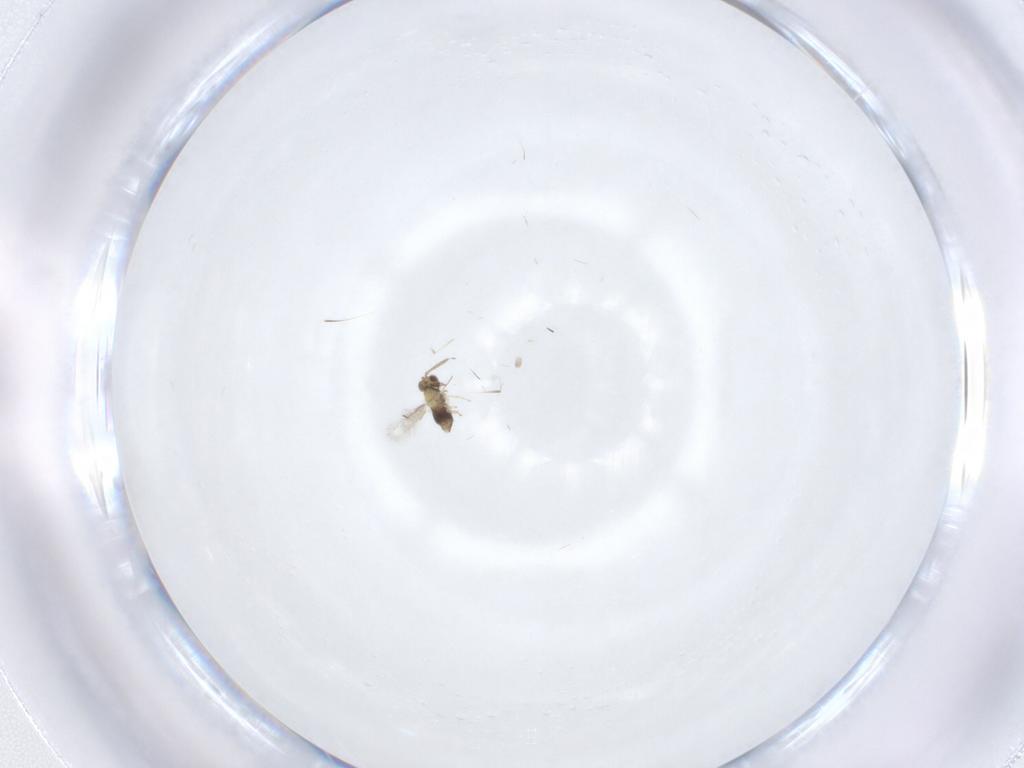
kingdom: Animalia
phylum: Arthropoda
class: Insecta
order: Hymenoptera
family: Aphelinidae
